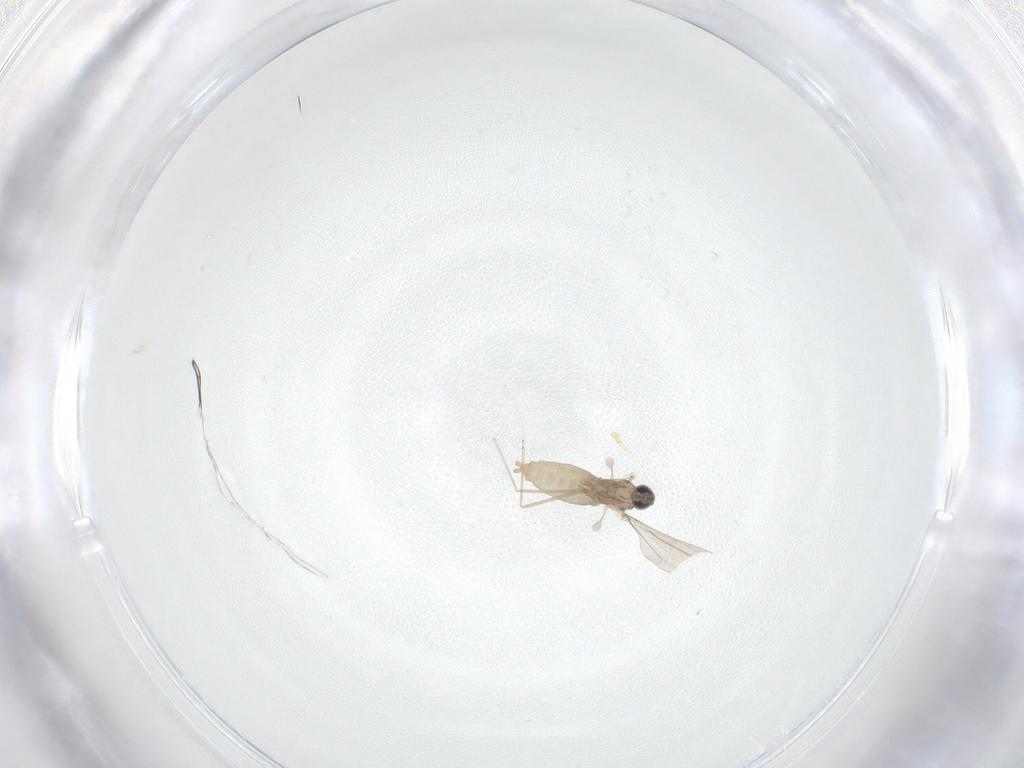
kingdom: Animalia
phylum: Arthropoda
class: Insecta
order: Diptera
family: Cecidomyiidae
